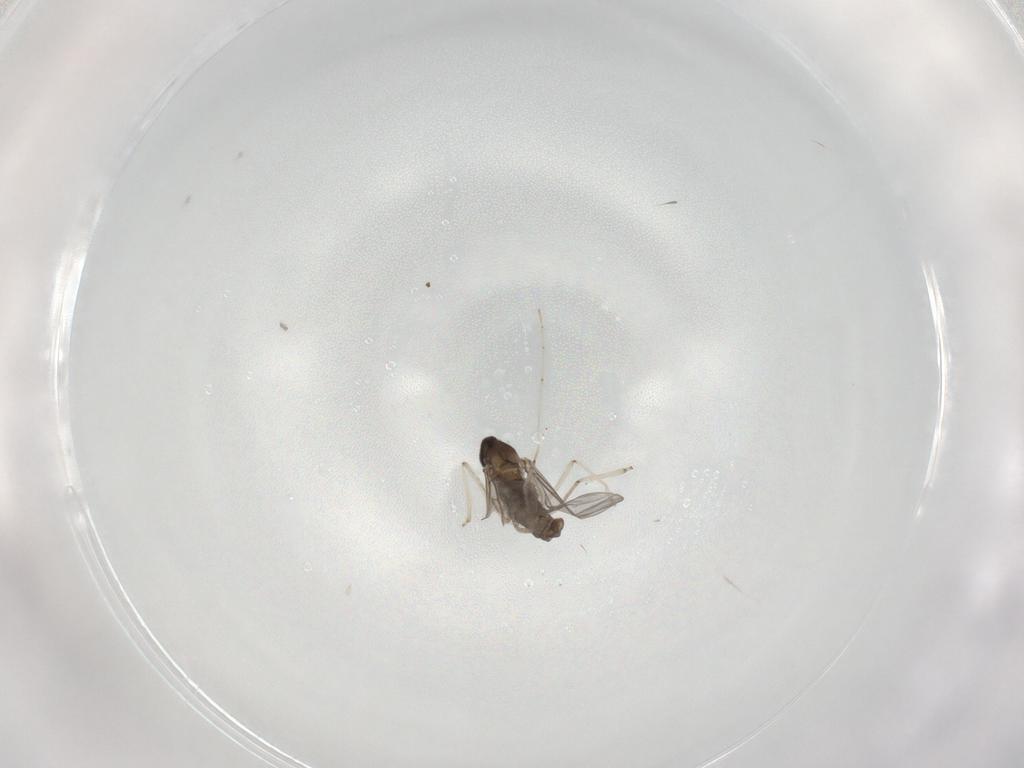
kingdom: Animalia
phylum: Arthropoda
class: Insecta
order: Diptera
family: Cecidomyiidae
